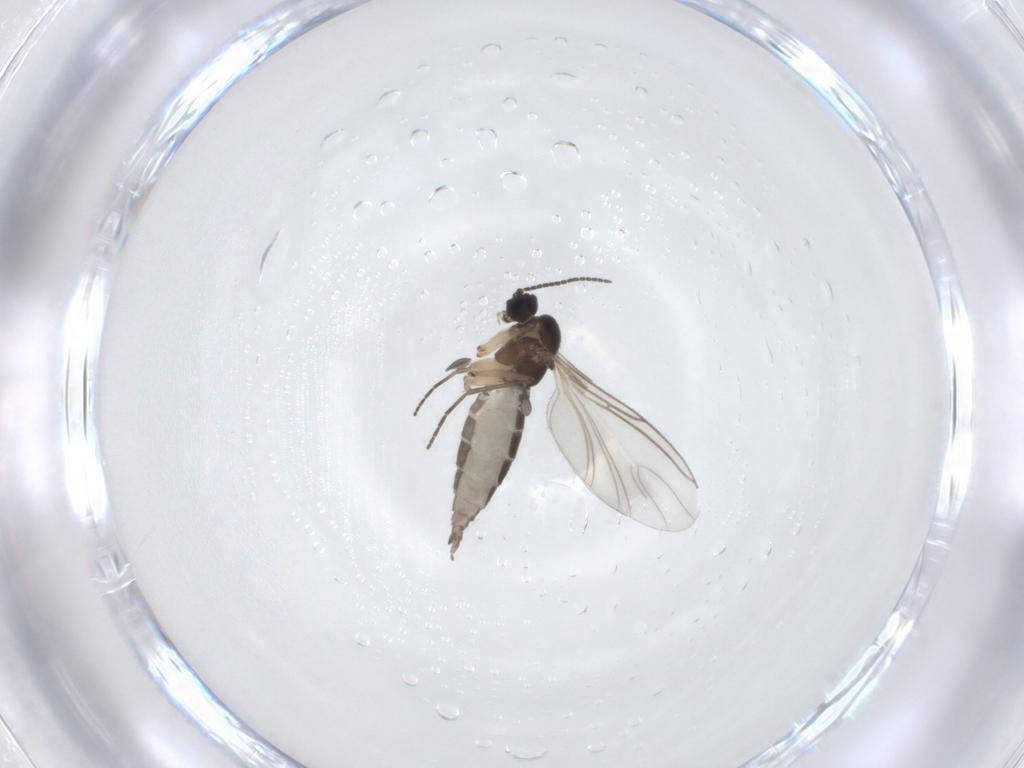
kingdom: Animalia
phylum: Arthropoda
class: Insecta
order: Diptera
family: Sciaridae
